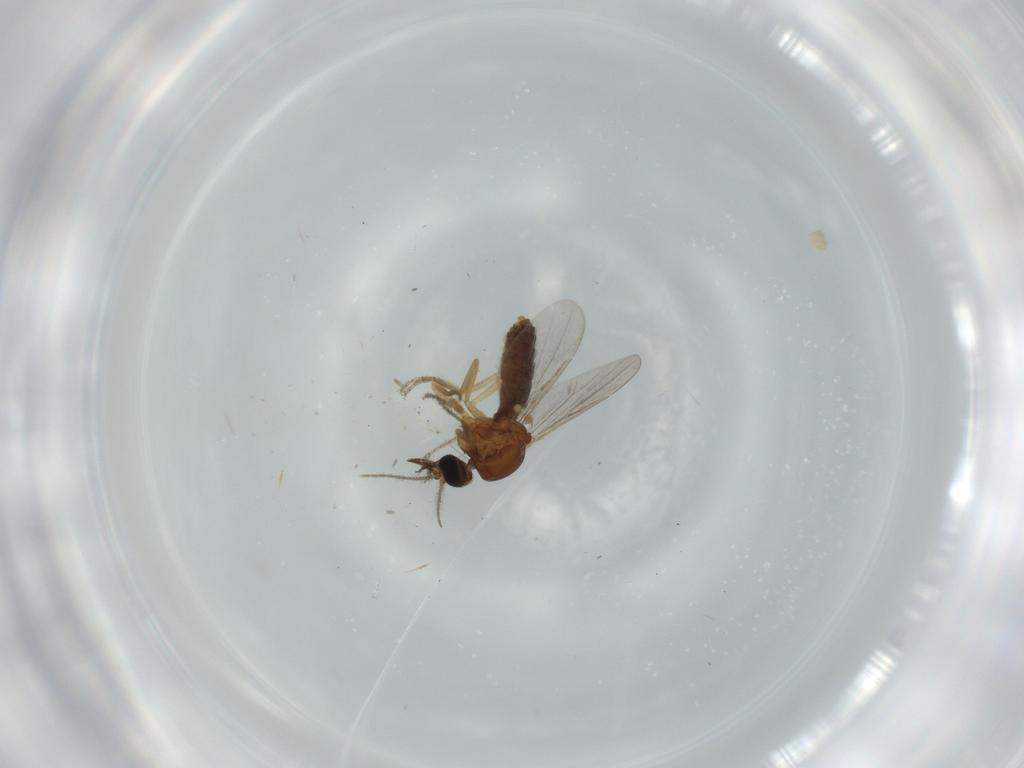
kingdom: Animalia
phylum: Arthropoda
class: Insecta
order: Diptera
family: Ceratopogonidae
